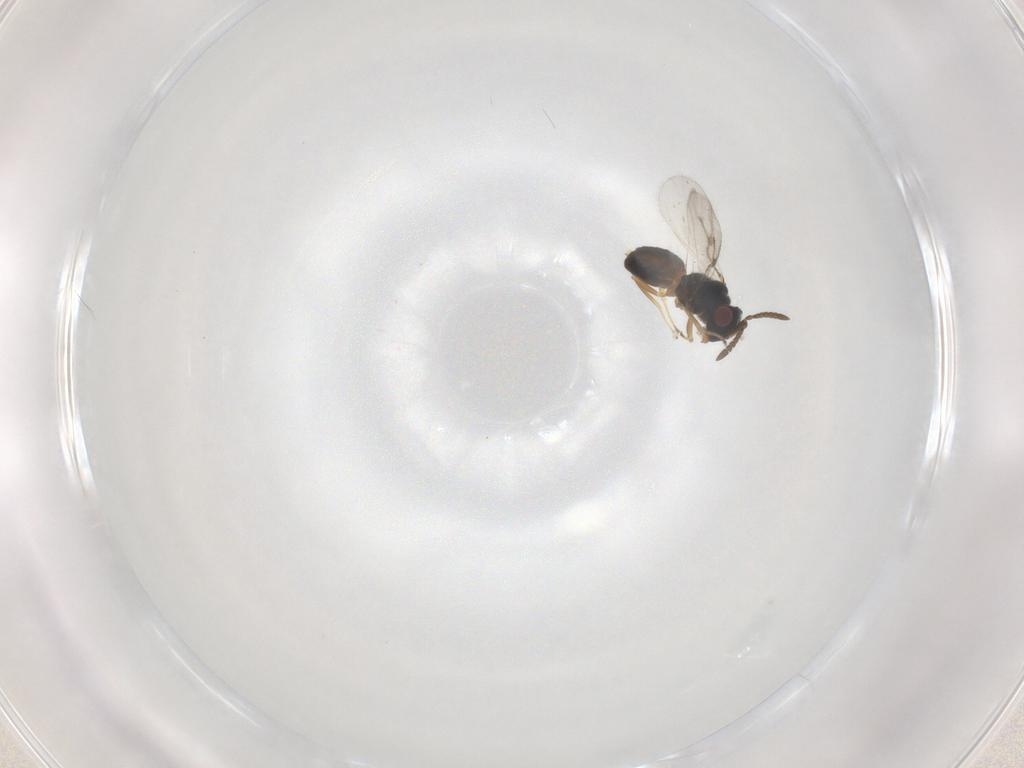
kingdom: Animalia
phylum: Arthropoda
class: Insecta
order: Hymenoptera
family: Pteromalidae
